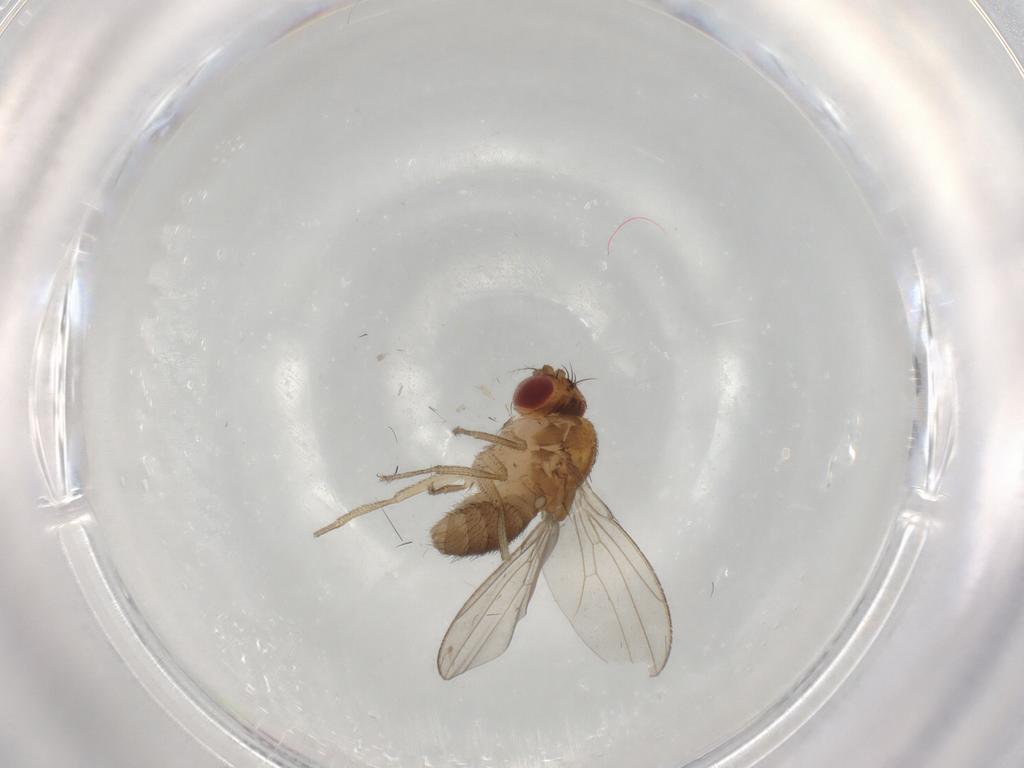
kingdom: Animalia
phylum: Arthropoda
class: Insecta
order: Diptera
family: Drosophilidae
